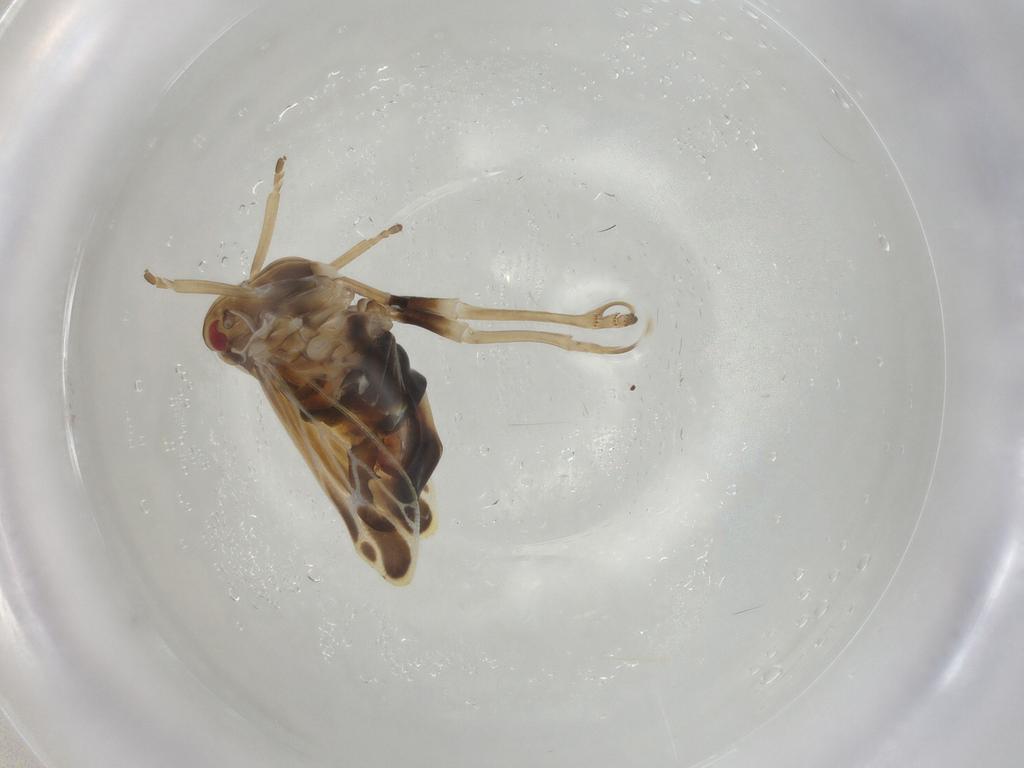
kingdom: Animalia
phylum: Arthropoda
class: Insecta
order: Hemiptera
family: Derbidae
